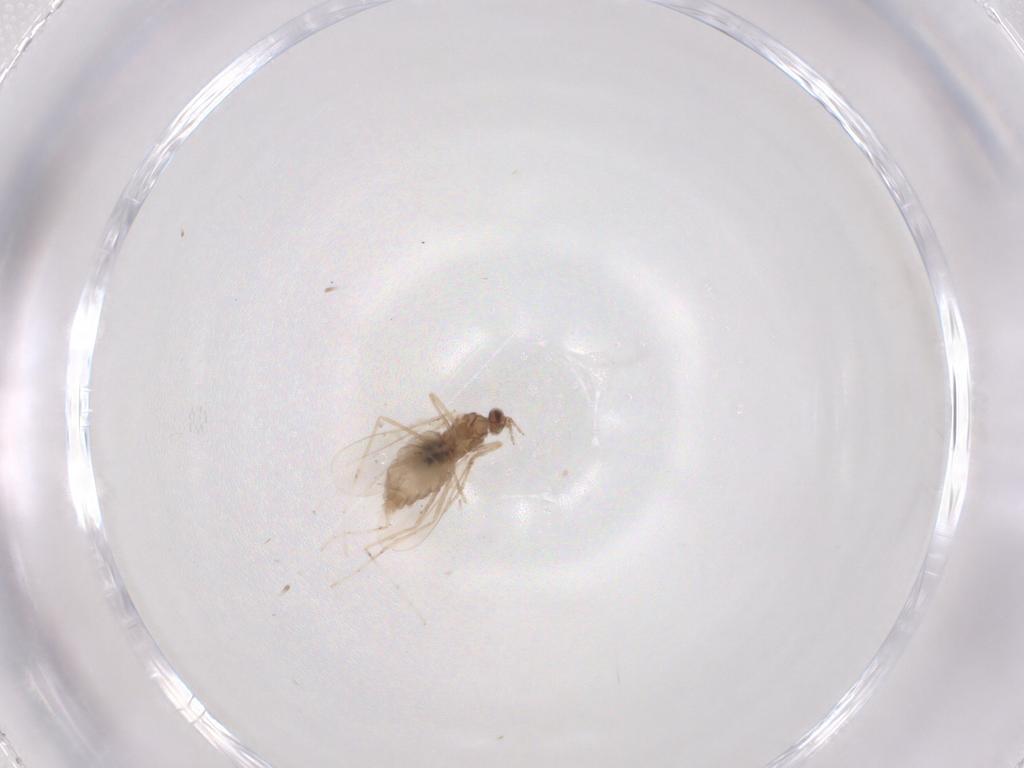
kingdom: Animalia
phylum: Arthropoda
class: Insecta
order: Diptera
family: Cecidomyiidae
